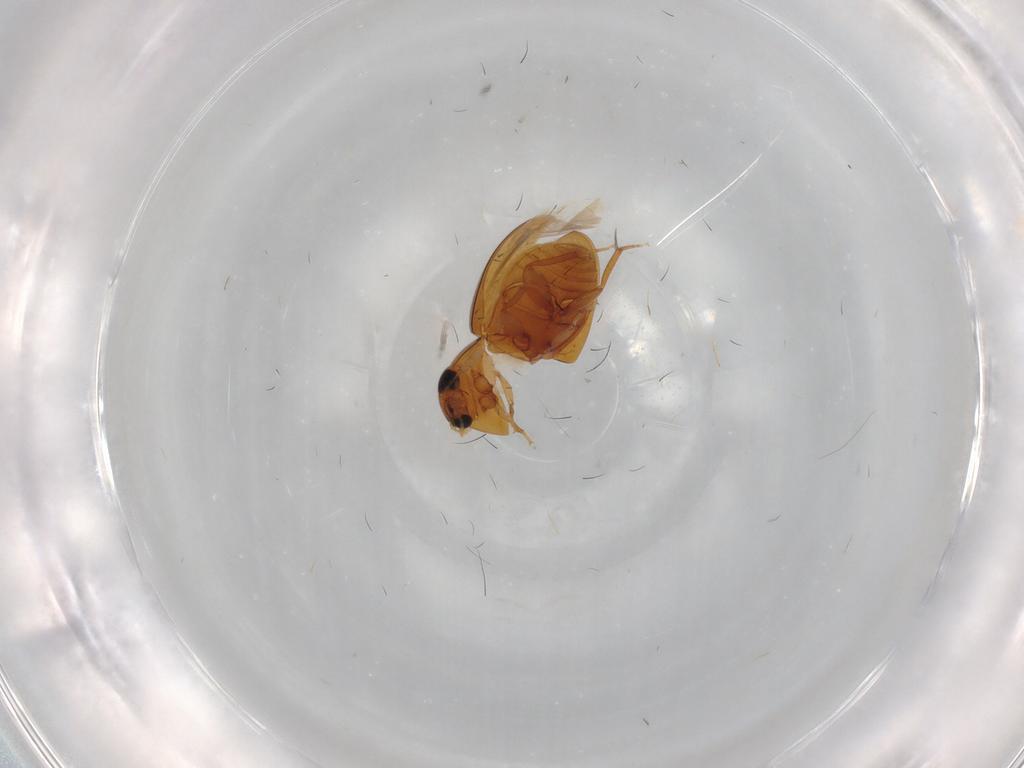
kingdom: Animalia
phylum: Arthropoda
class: Insecta
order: Coleoptera
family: Phalacridae
